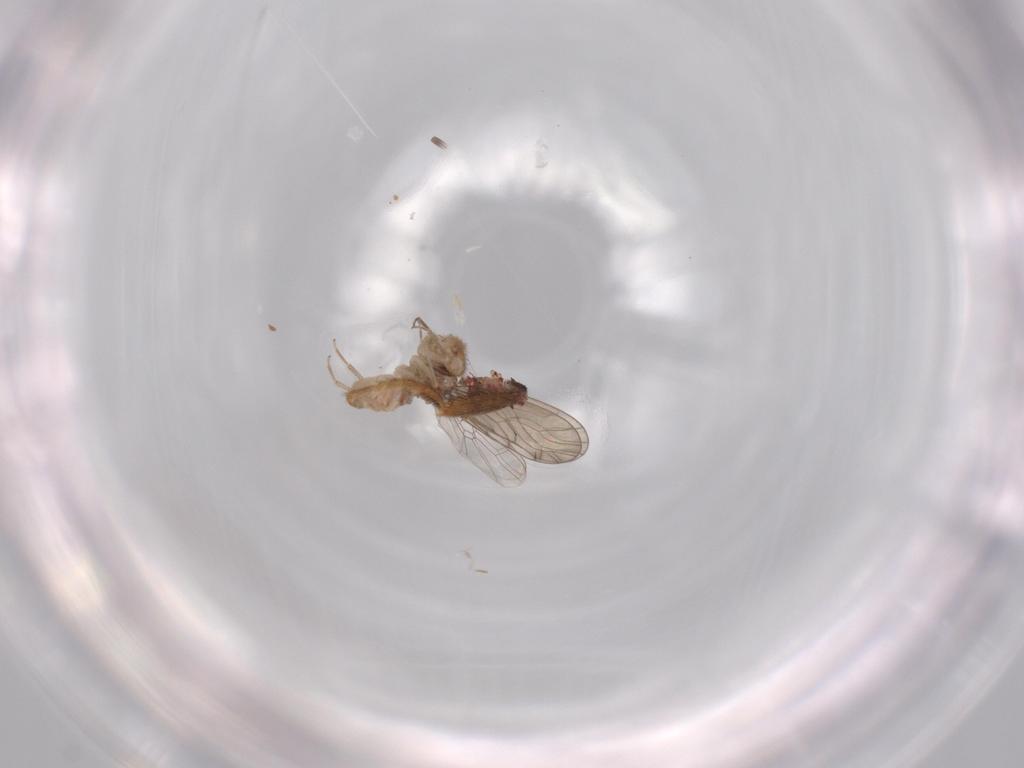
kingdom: Animalia
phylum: Arthropoda
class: Insecta
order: Psocodea
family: Ectopsocidae
